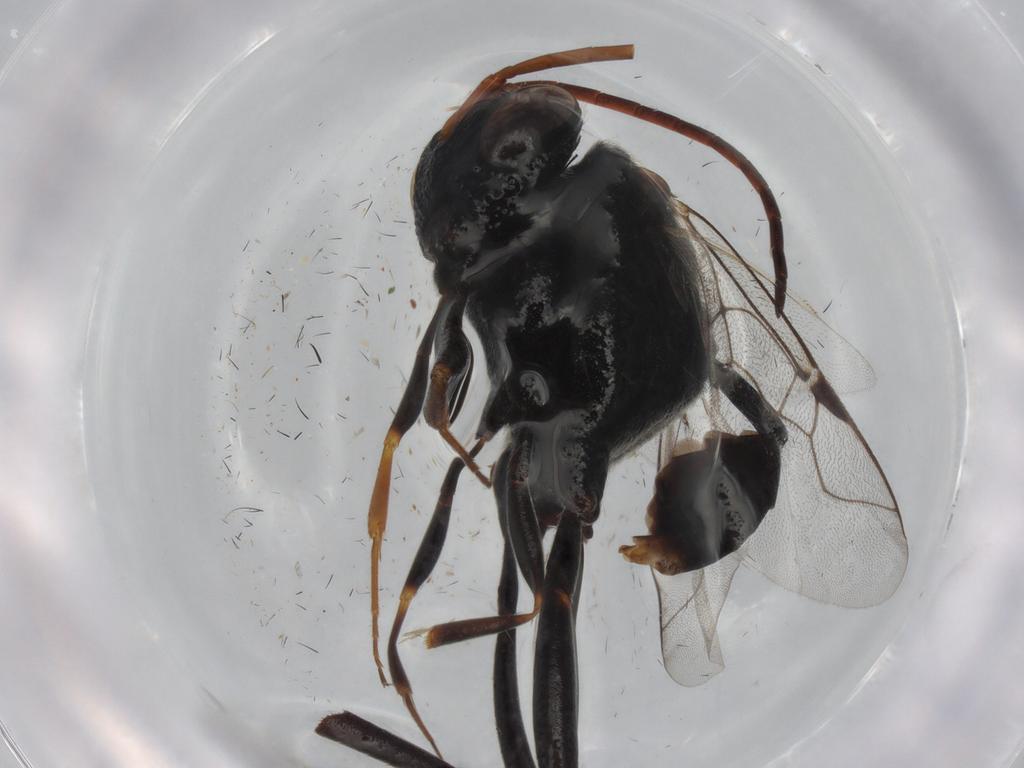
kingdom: Animalia
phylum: Arthropoda
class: Insecta
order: Hymenoptera
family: Evaniidae
